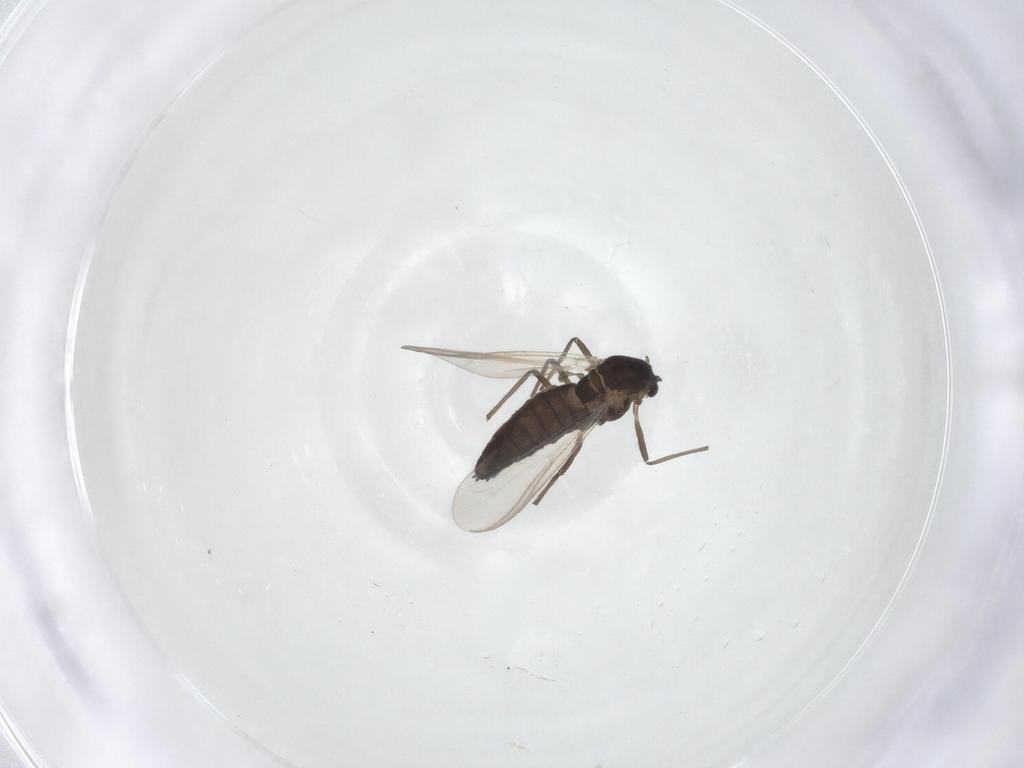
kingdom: Animalia
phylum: Arthropoda
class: Insecta
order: Diptera
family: Chironomidae
